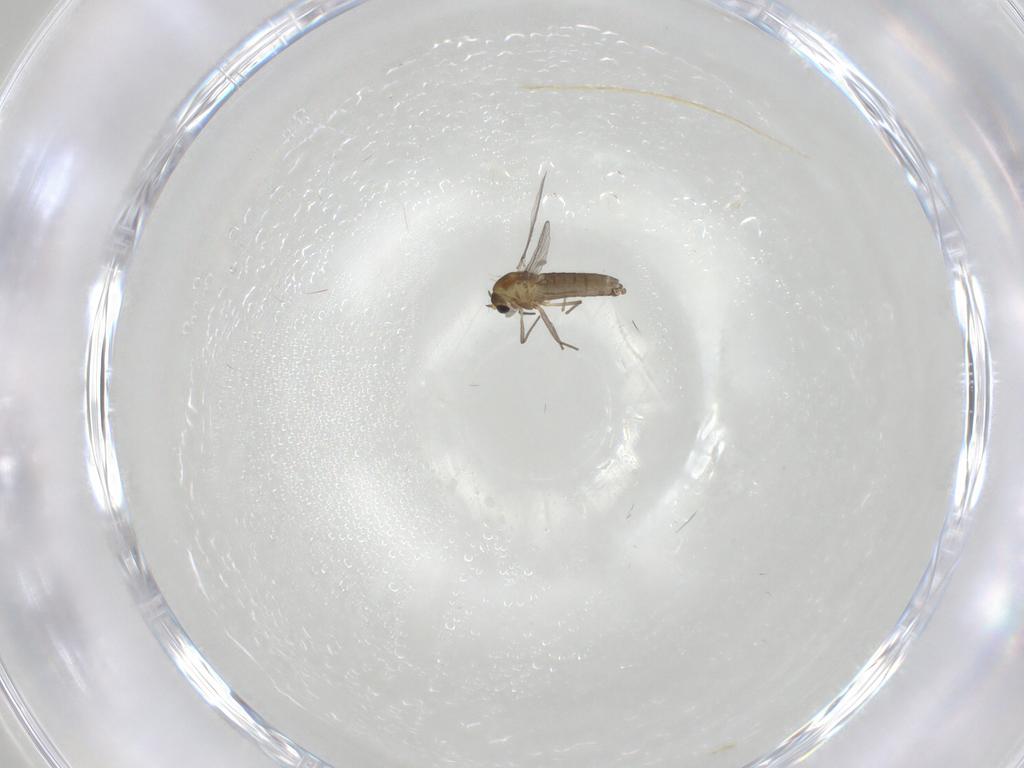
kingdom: Animalia
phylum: Arthropoda
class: Insecta
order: Diptera
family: Chironomidae
